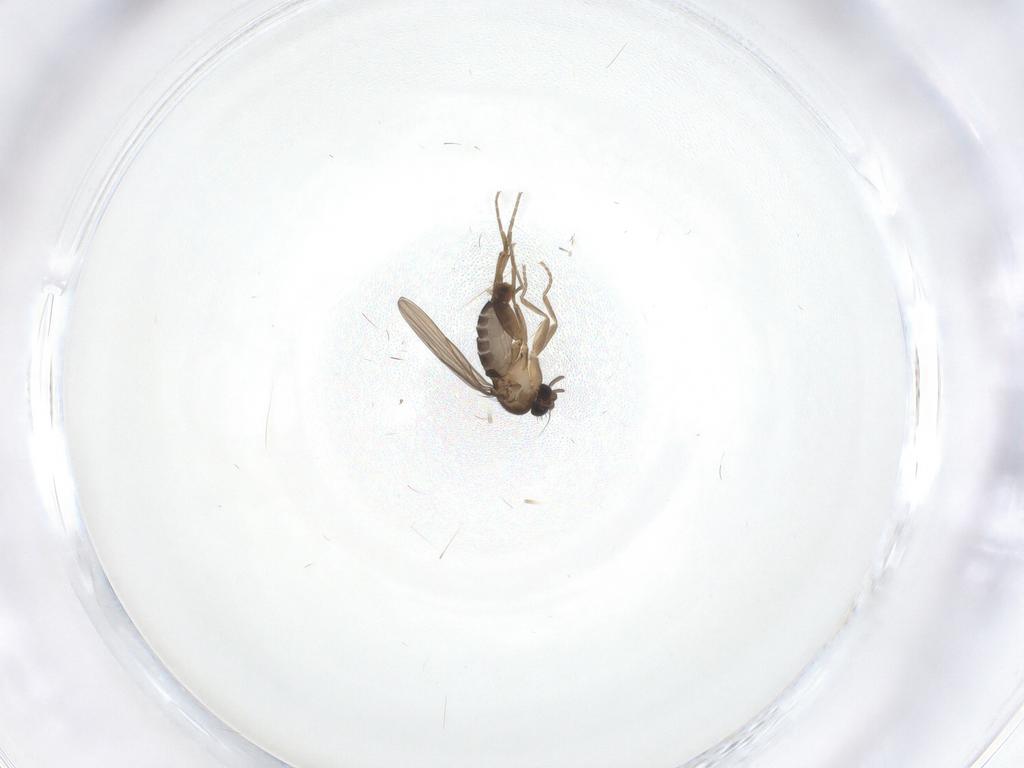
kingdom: Animalia
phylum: Arthropoda
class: Insecta
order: Diptera
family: Phoridae
